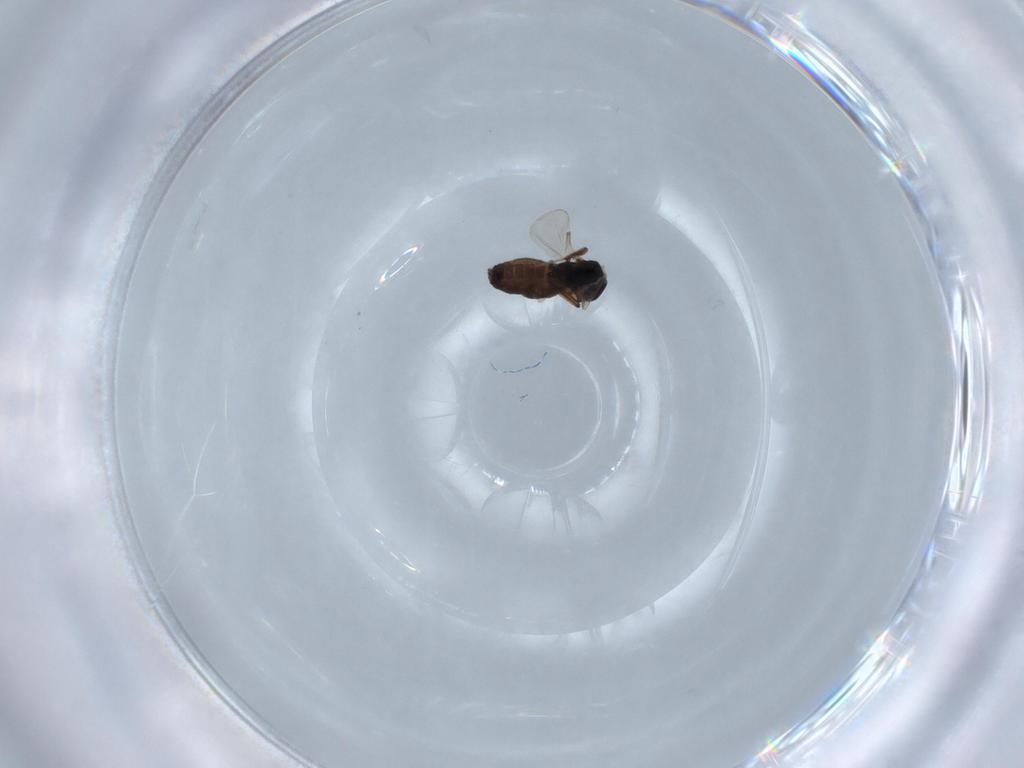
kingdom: Animalia
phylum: Arthropoda
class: Insecta
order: Diptera
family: Ceratopogonidae
